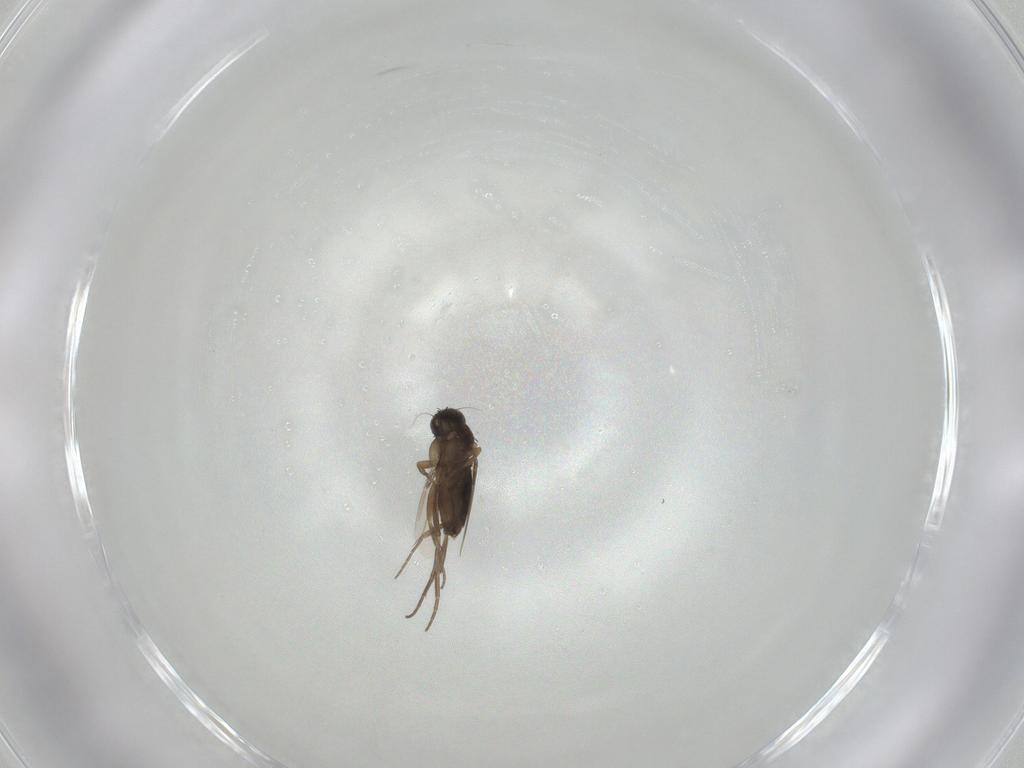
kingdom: Animalia
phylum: Arthropoda
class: Insecta
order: Diptera
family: Phoridae
